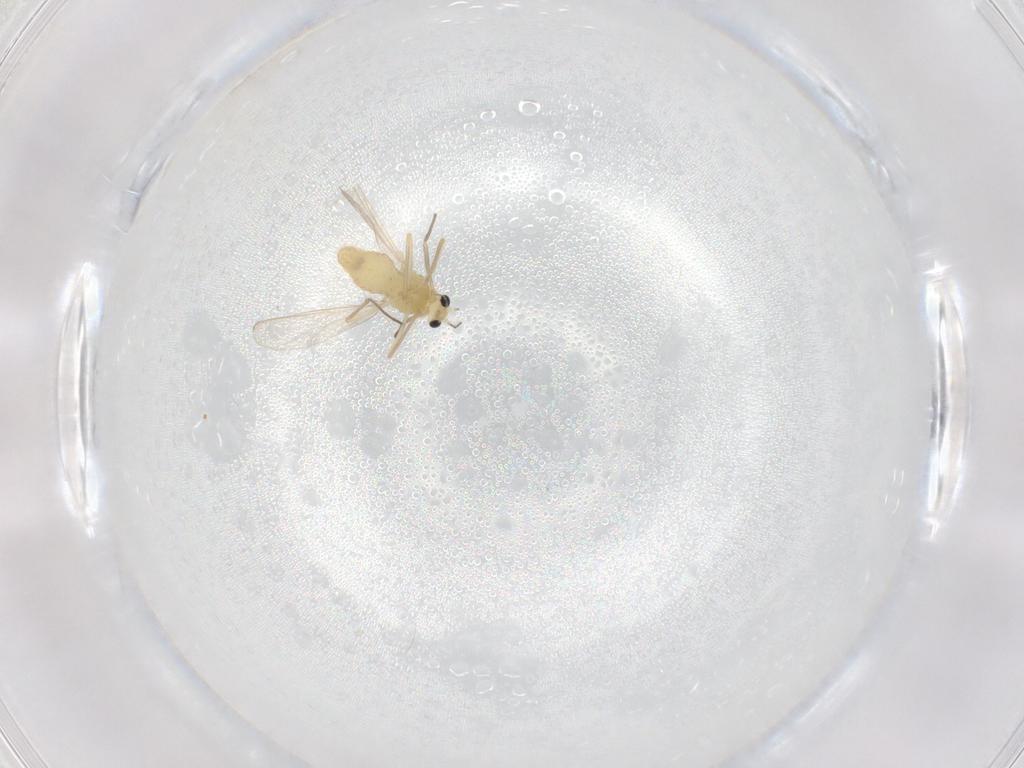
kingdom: Animalia
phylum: Arthropoda
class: Insecta
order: Diptera
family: Chironomidae
